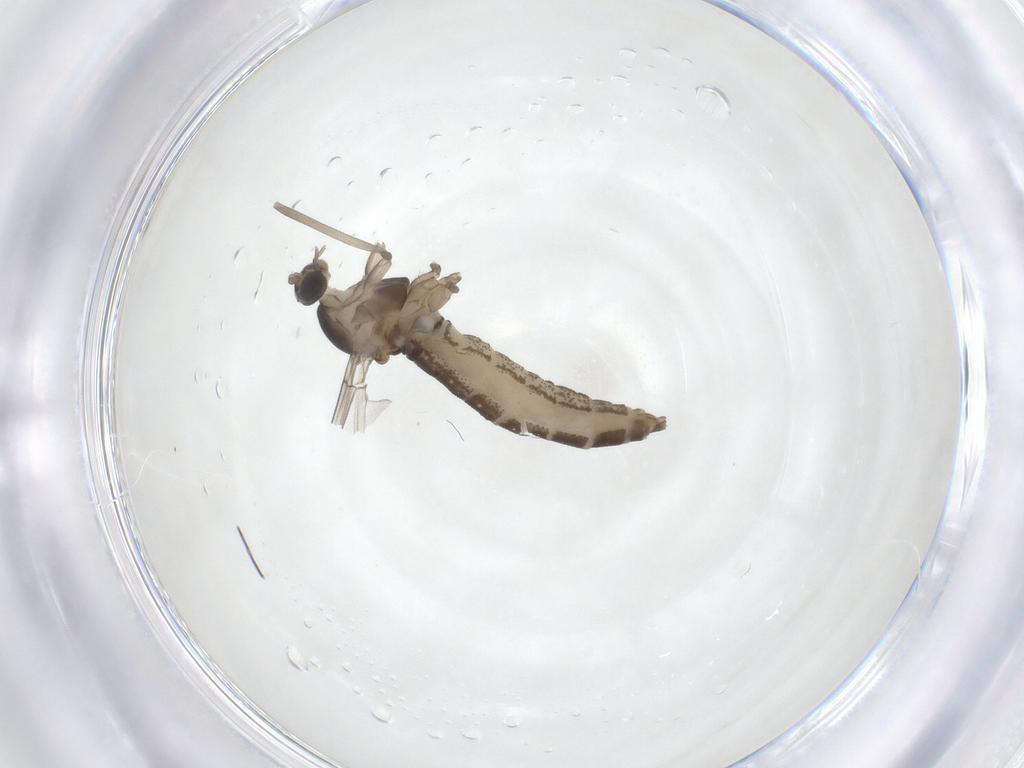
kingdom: Animalia
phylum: Arthropoda
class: Insecta
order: Diptera
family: Cecidomyiidae
